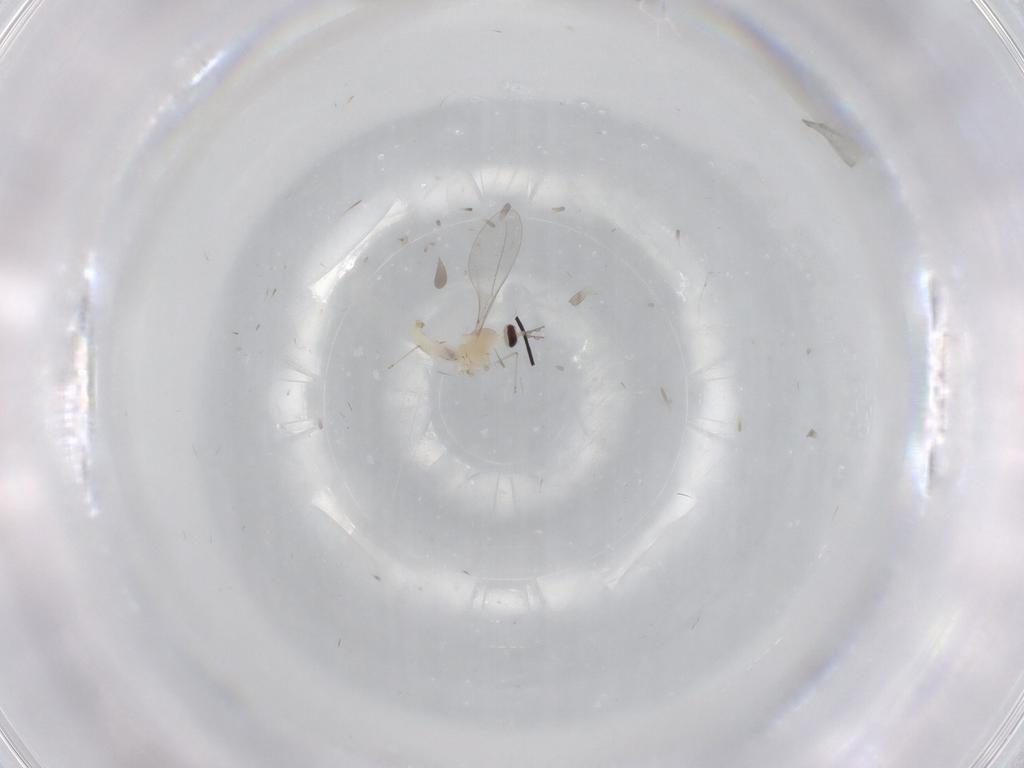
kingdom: Animalia
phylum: Arthropoda
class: Insecta
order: Diptera
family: Cecidomyiidae
